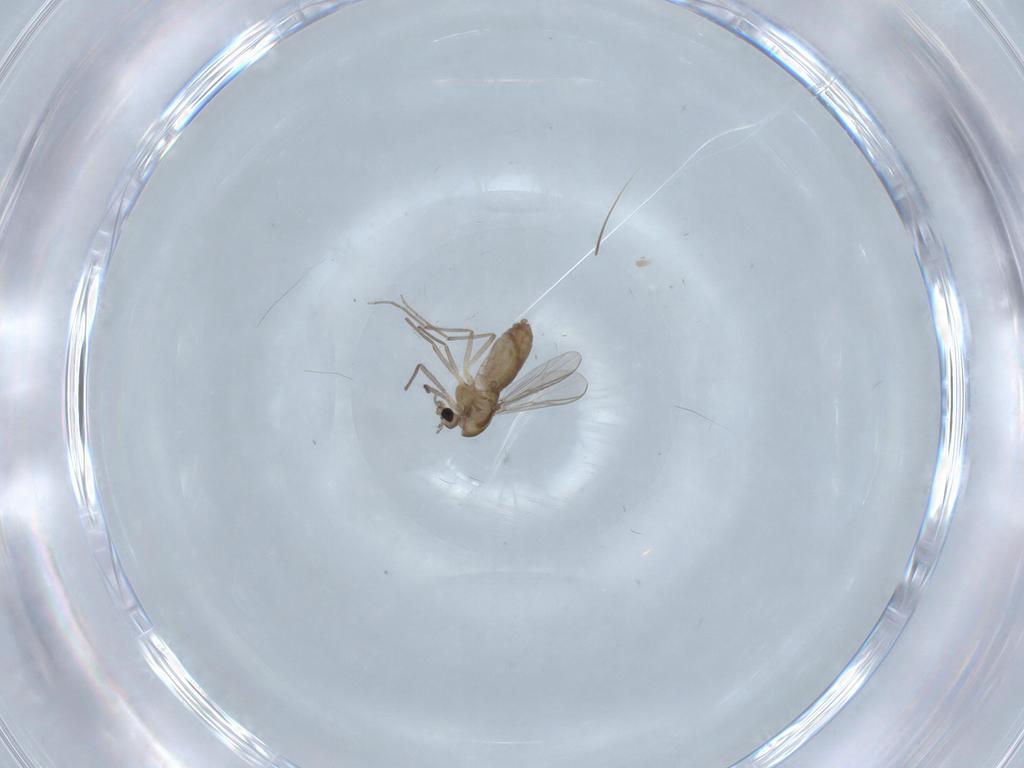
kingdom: Animalia
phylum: Arthropoda
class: Insecta
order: Diptera
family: Chironomidae
